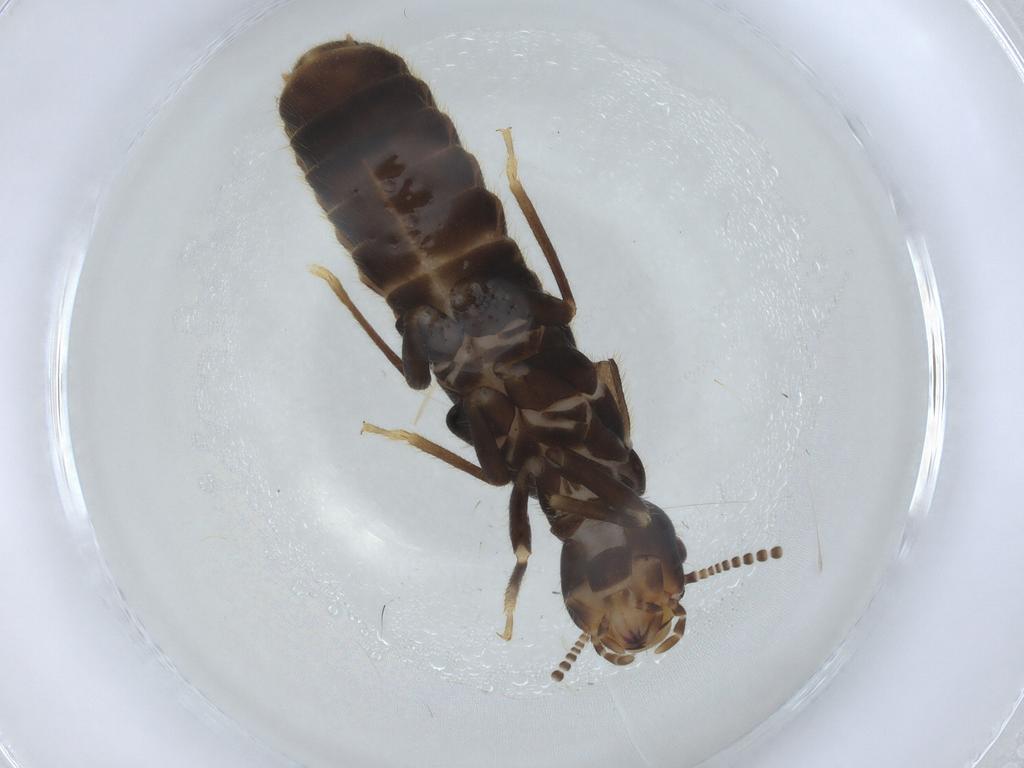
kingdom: Animalia
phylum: Arthropoda
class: Insecta
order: Blattodea
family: Rhinotermitidae
